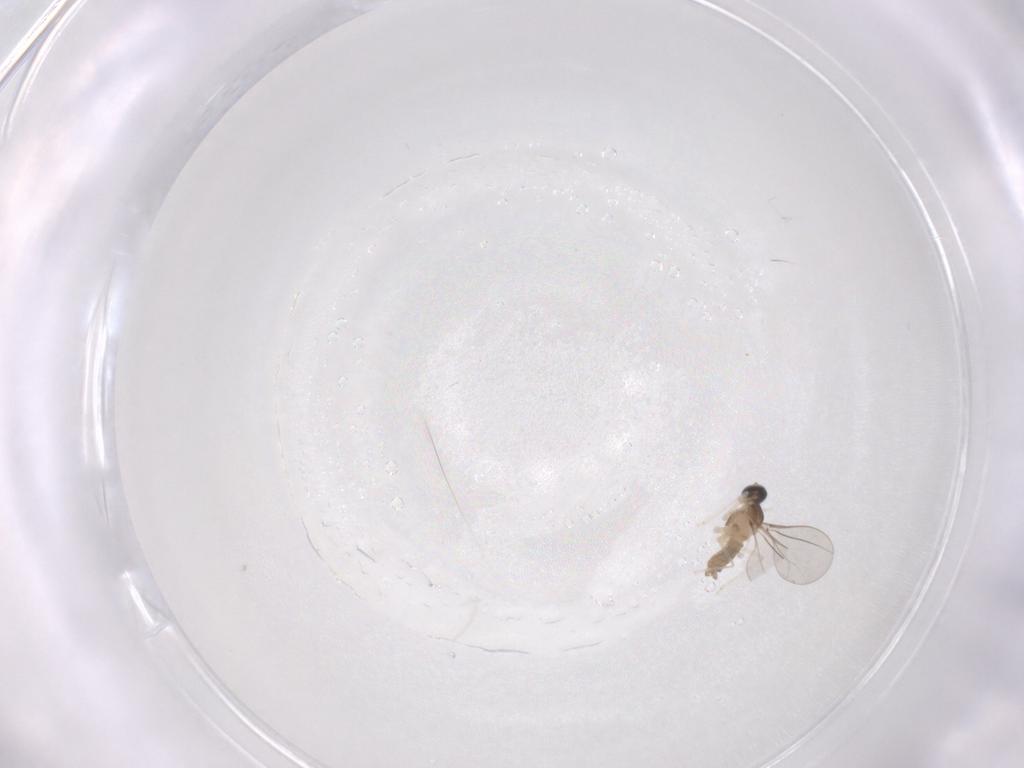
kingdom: Animalia
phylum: Arthropoda
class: Insecta
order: Diptera
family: Cecidomyiidae
